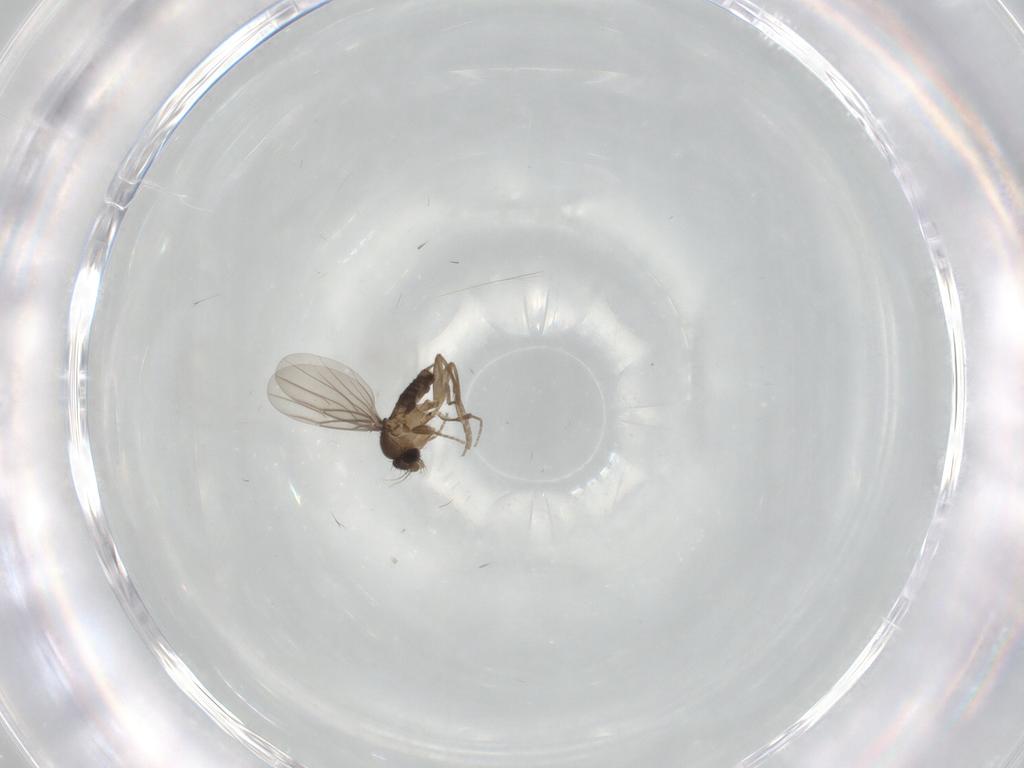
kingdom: Animalia
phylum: Arthropoda
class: Insecta
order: Diptera
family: Phoridae
